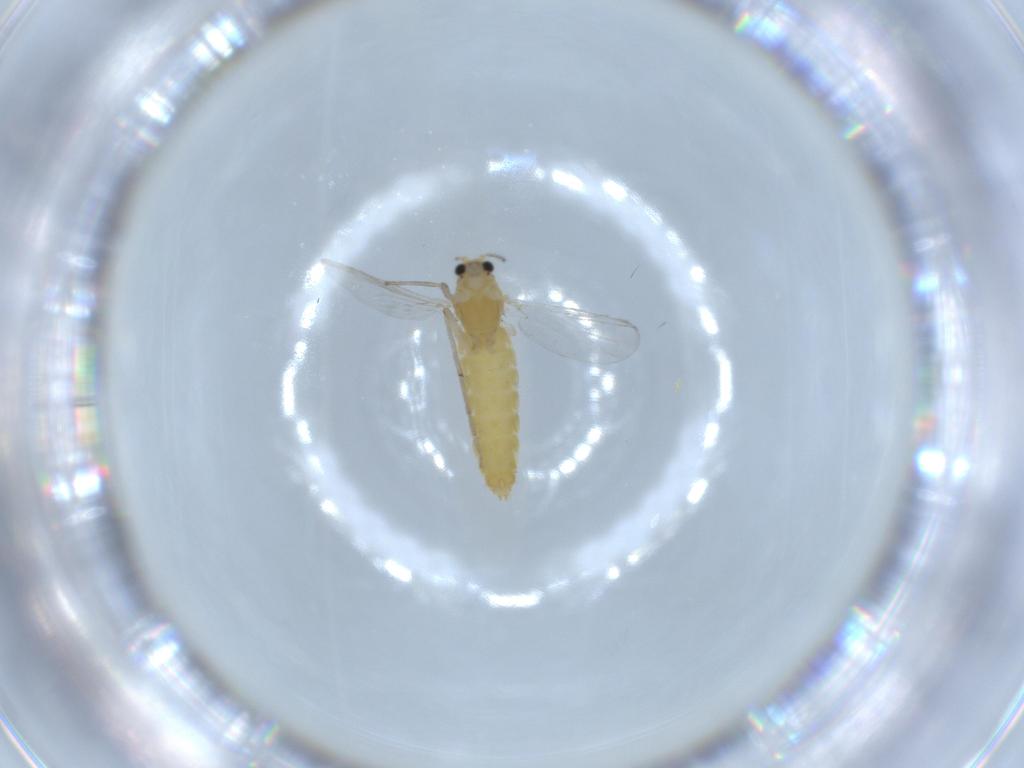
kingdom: Animalia
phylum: Arthropoda
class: Insecta
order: Diptera
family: Chironomidae
